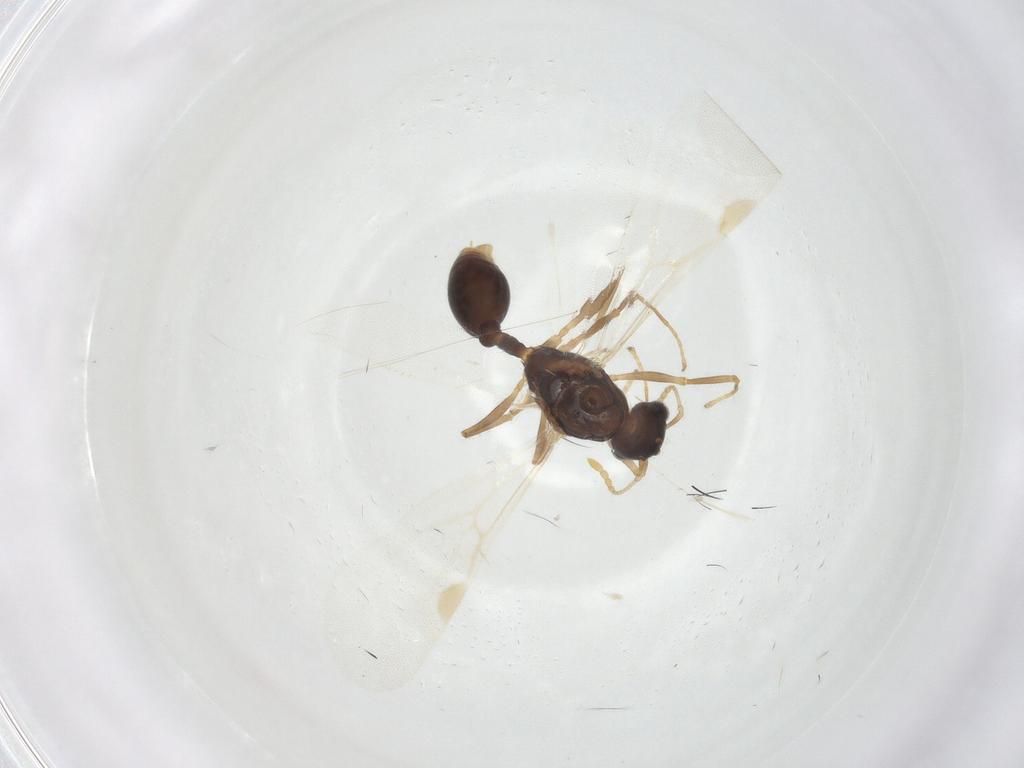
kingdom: Animalia
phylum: Arthropoda
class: Insecta
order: Hymenoptera
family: Formicidae
